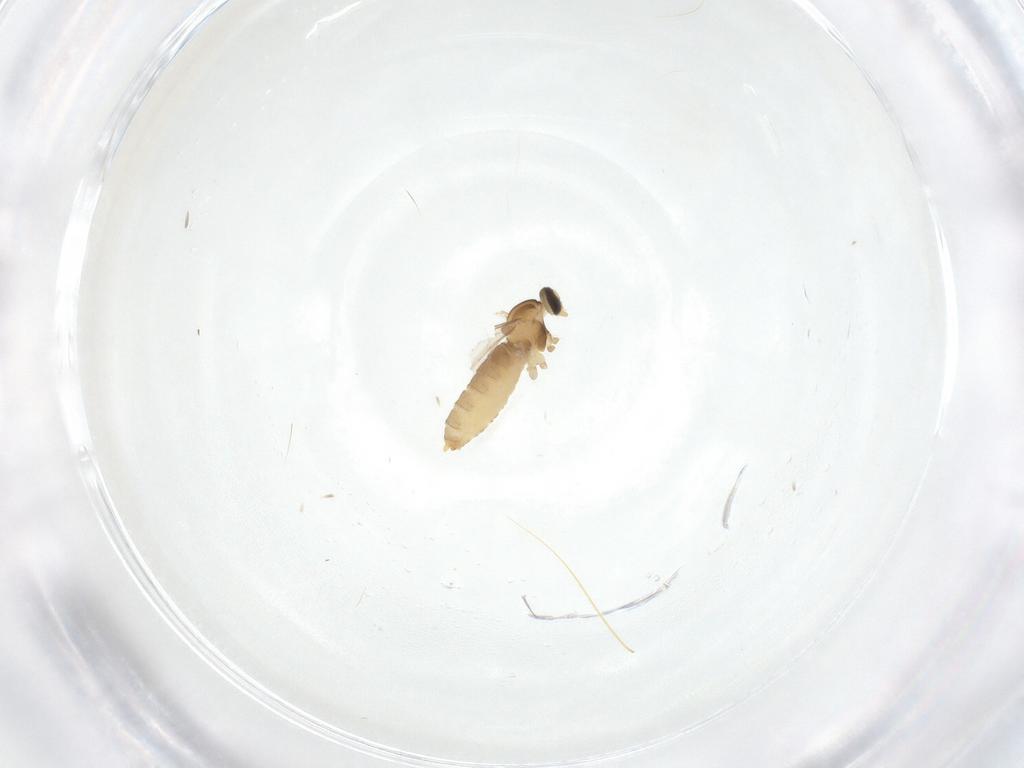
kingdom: Animalia
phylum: Arthropoda
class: Insecta
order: Diptera
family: Cecidomyiidae
